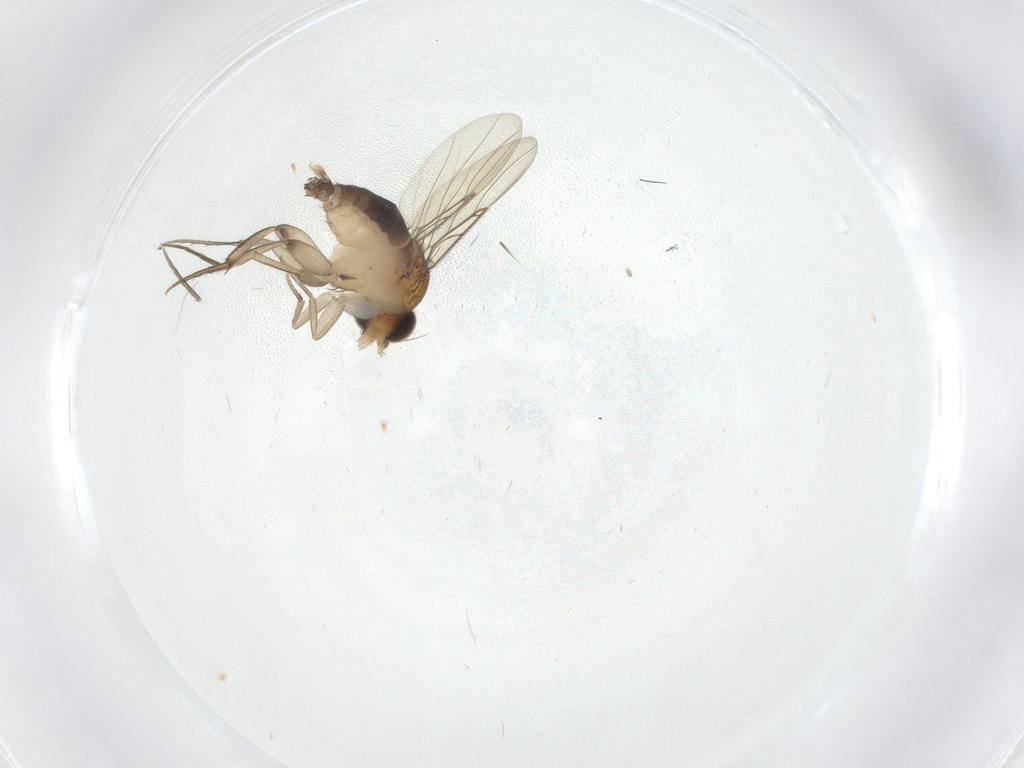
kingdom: Animalia
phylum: Arthropoda
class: Insecta
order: Diptera
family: Phoridae
